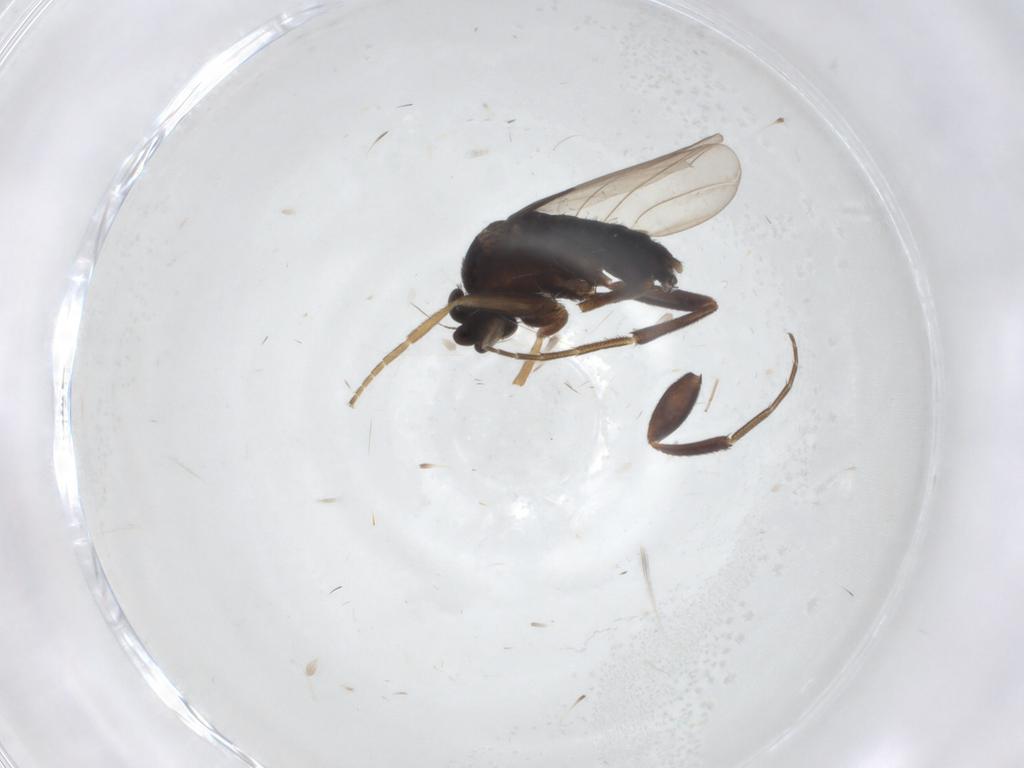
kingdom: Animalia
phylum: Arthropoda
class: Insecta
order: Diptera
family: Phoridae
